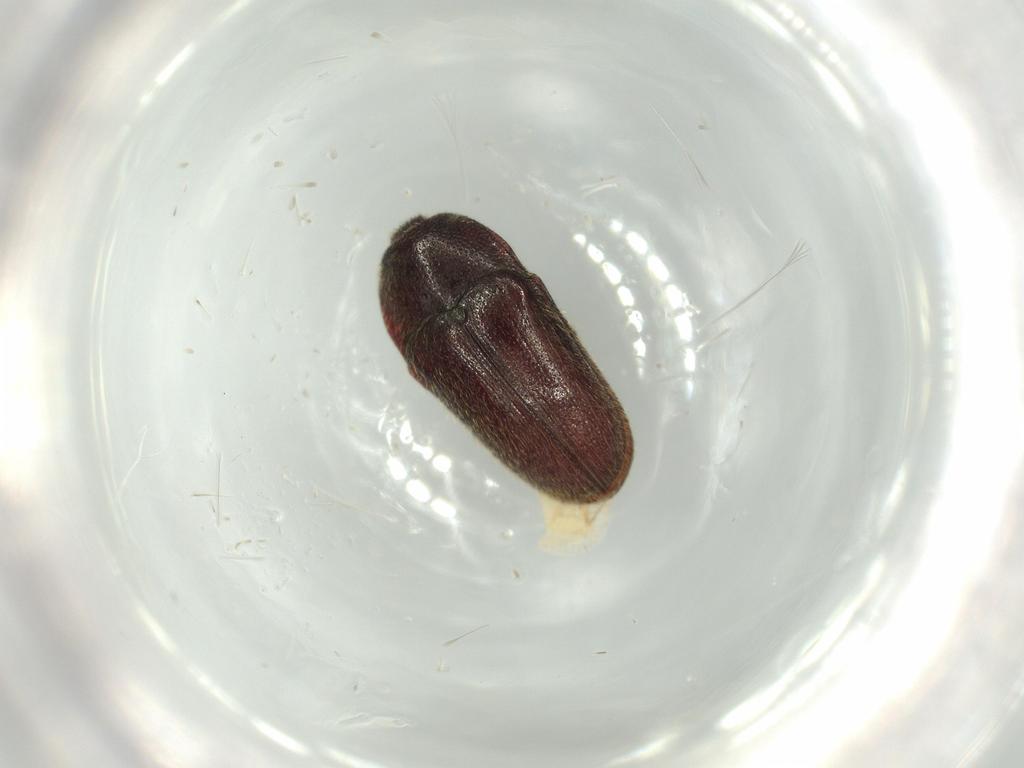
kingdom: Animalia
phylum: Arthropoda
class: Insecta
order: Coleoptera
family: Throscidae
